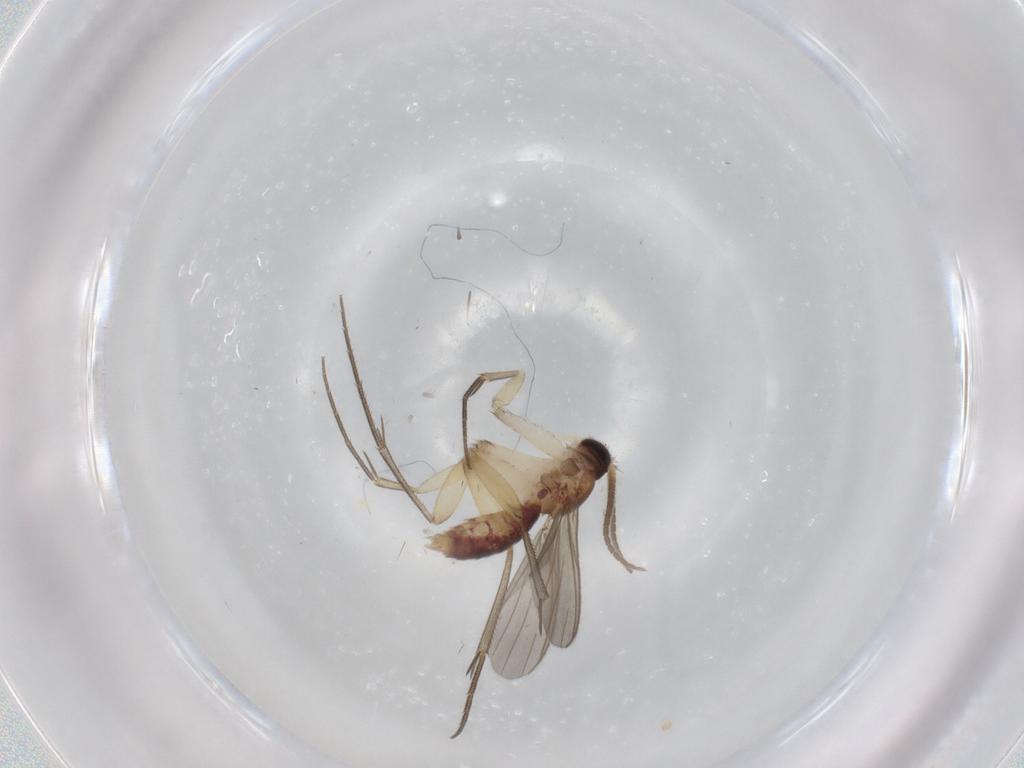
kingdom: Animalia
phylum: Arthropoda
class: Insecta
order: Diptera
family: Mycetophilidae
